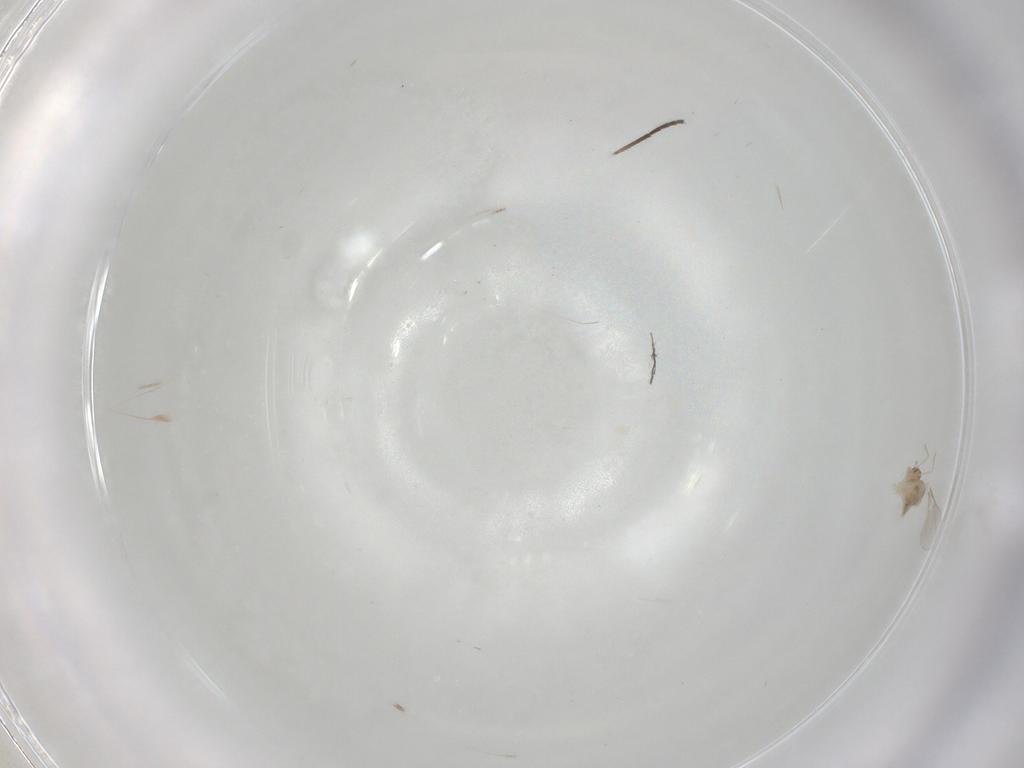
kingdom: Animalia
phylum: Arthropoda
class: Insecta
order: Diptera
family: Cecidomyiidae
